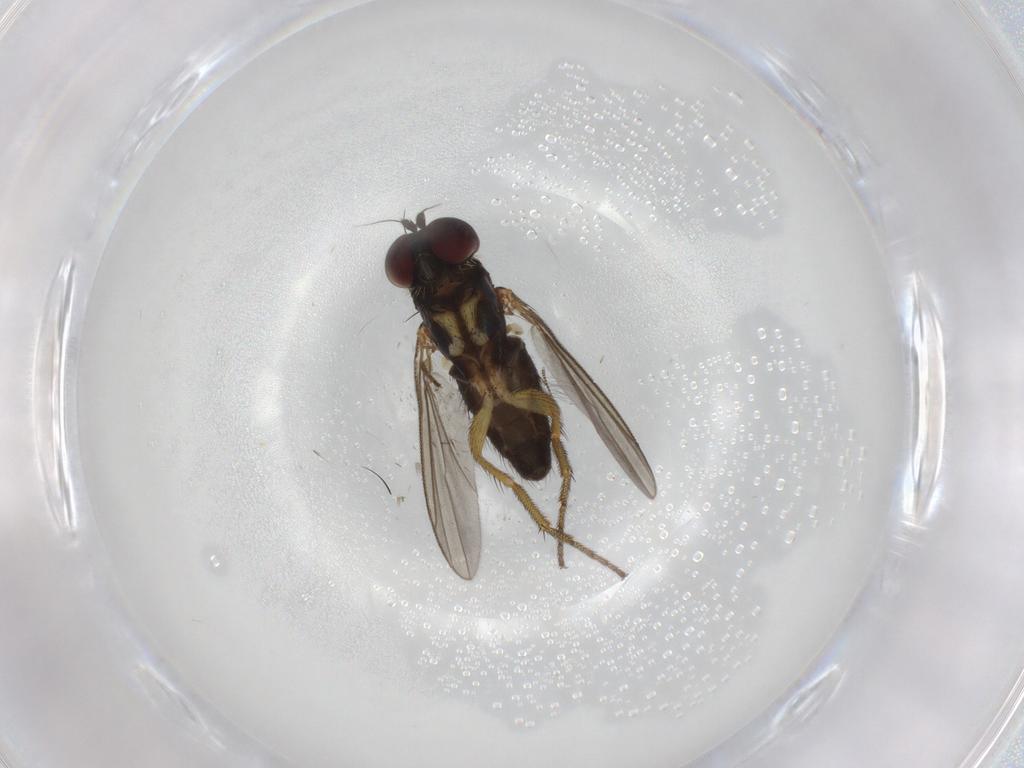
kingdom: Animalia
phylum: Arthropoda
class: Insecta
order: Diptera
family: Dolichopodidae
